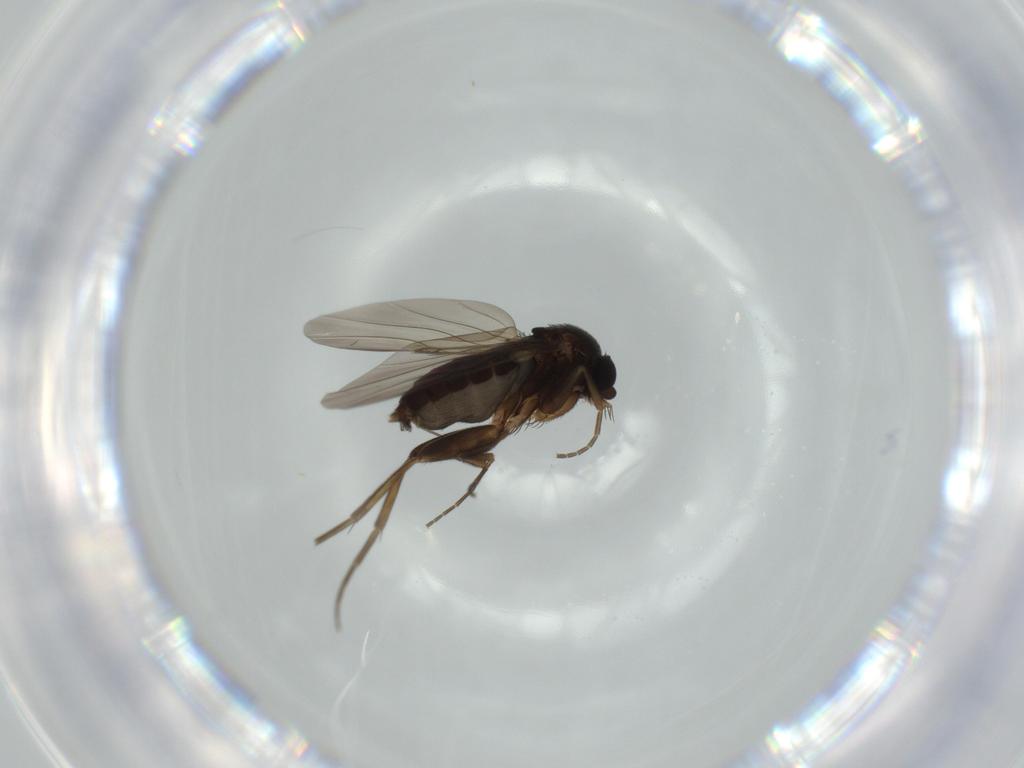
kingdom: Animalia
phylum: Arthropoda
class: Insecta
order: Diptera
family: Phoridae
